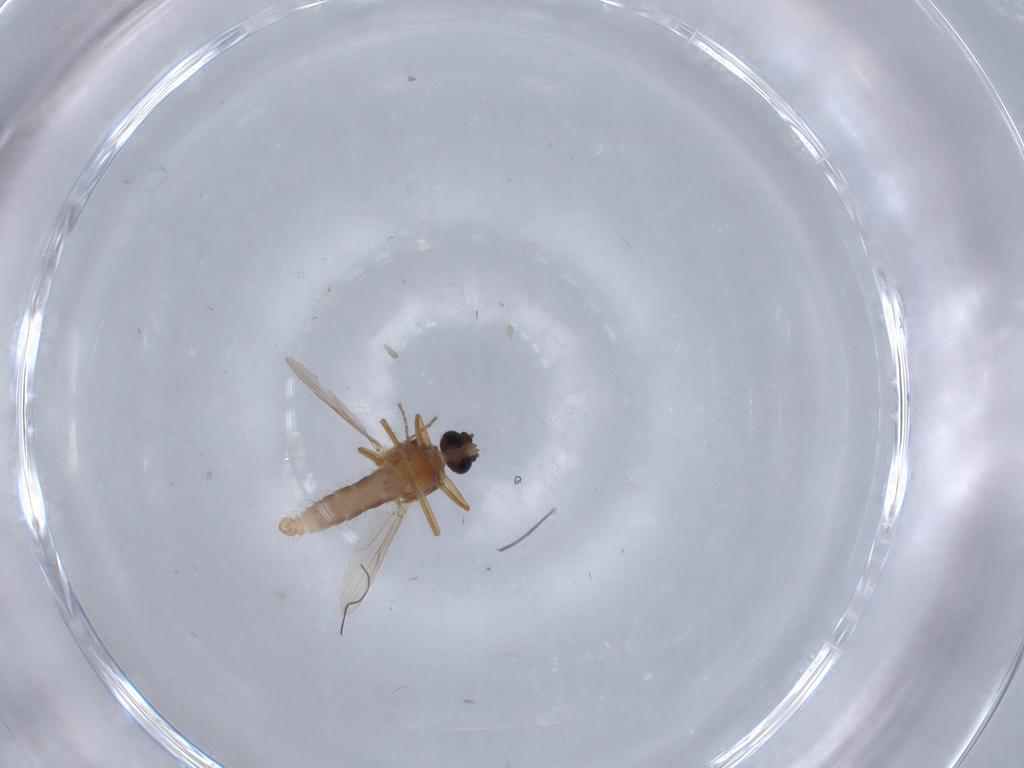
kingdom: Animalia
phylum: Arthropoda
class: Insecta
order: Diptera
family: Ceratopogonidae
